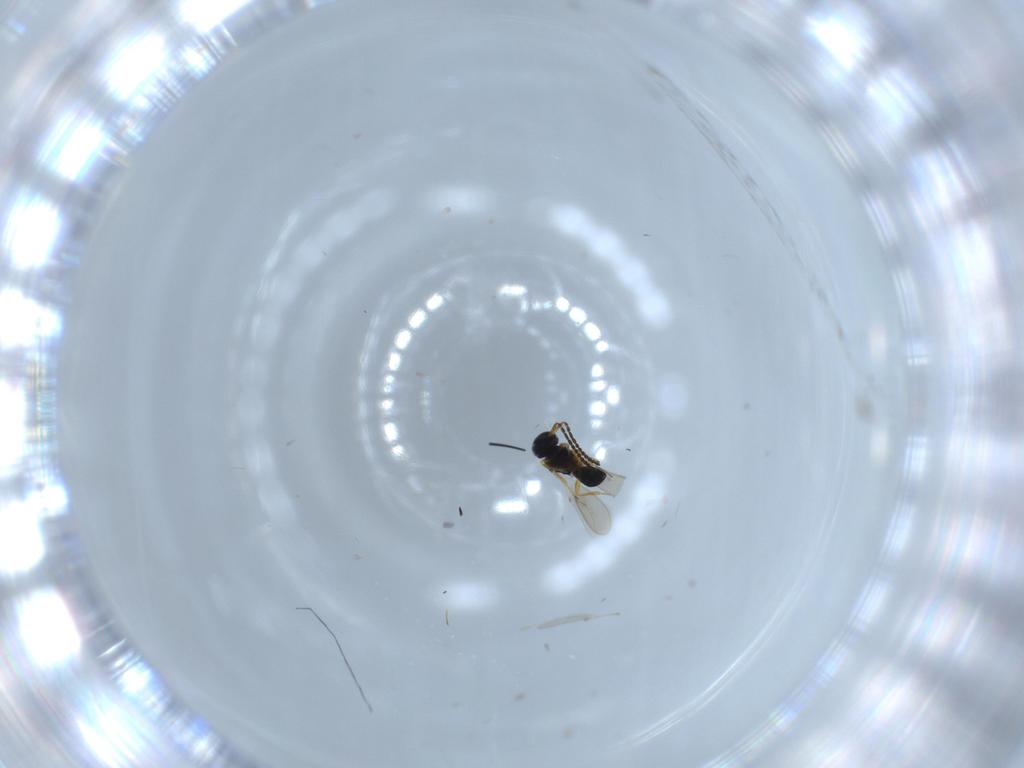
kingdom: Animalia
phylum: Arthropoda
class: Insecta
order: Hymenoptera
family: Scelionidae
